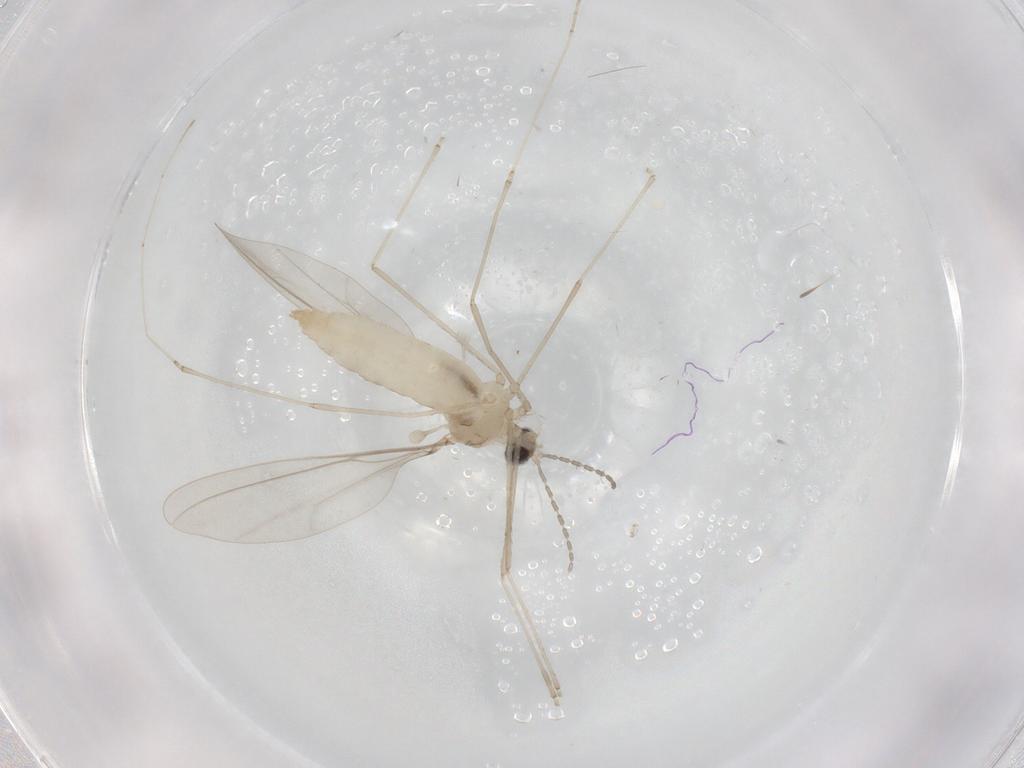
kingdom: Animalia
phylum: Arthropoda
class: Insecta
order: Diptera
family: Cecidomyiidae
